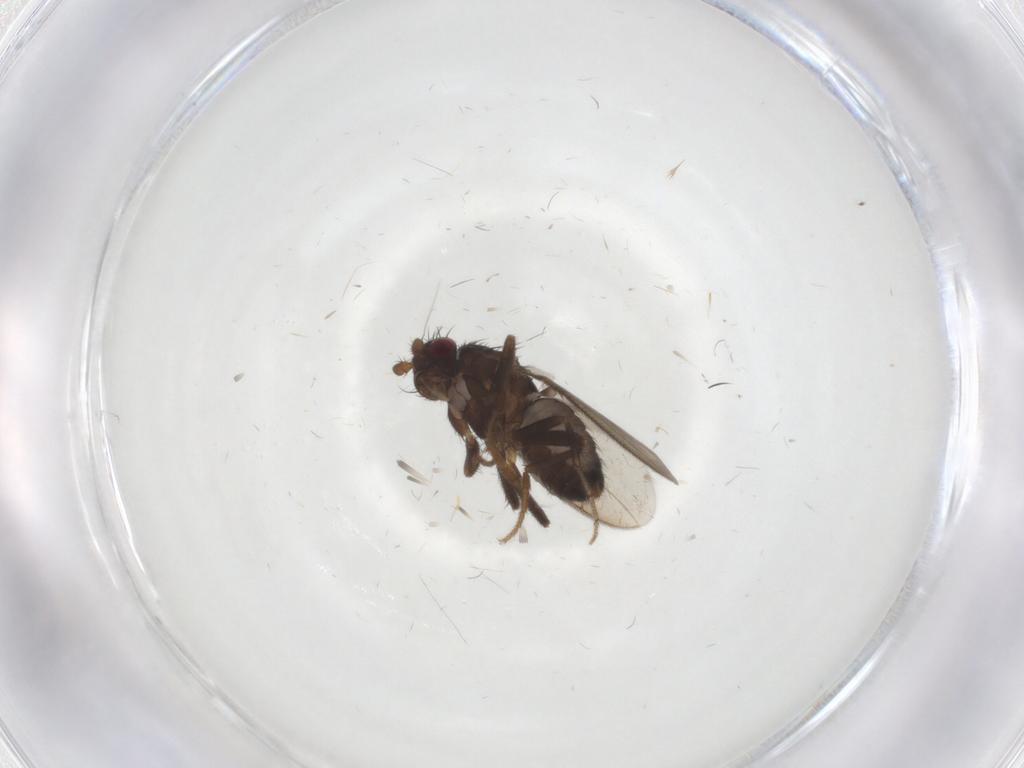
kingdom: Animalia
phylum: Arthropoda
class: Insecta
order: Diptera
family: Sphaeroceridae
